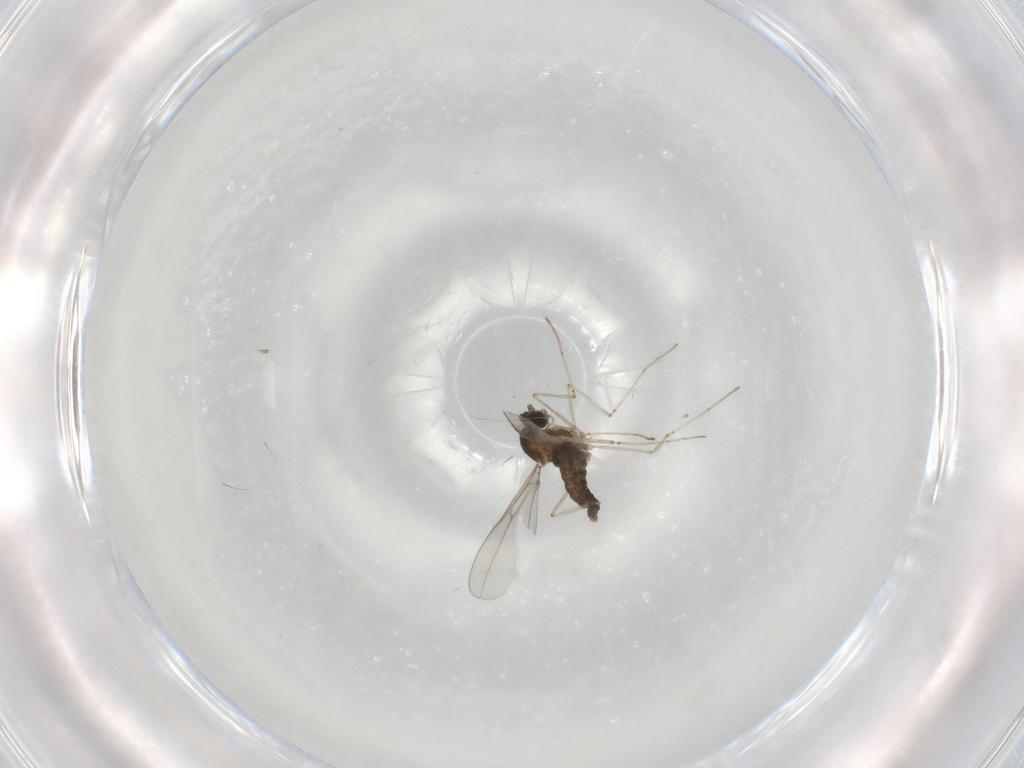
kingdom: Animalia
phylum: Arthropoda
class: Insecta
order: Diptera
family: Cecidomyiidae
